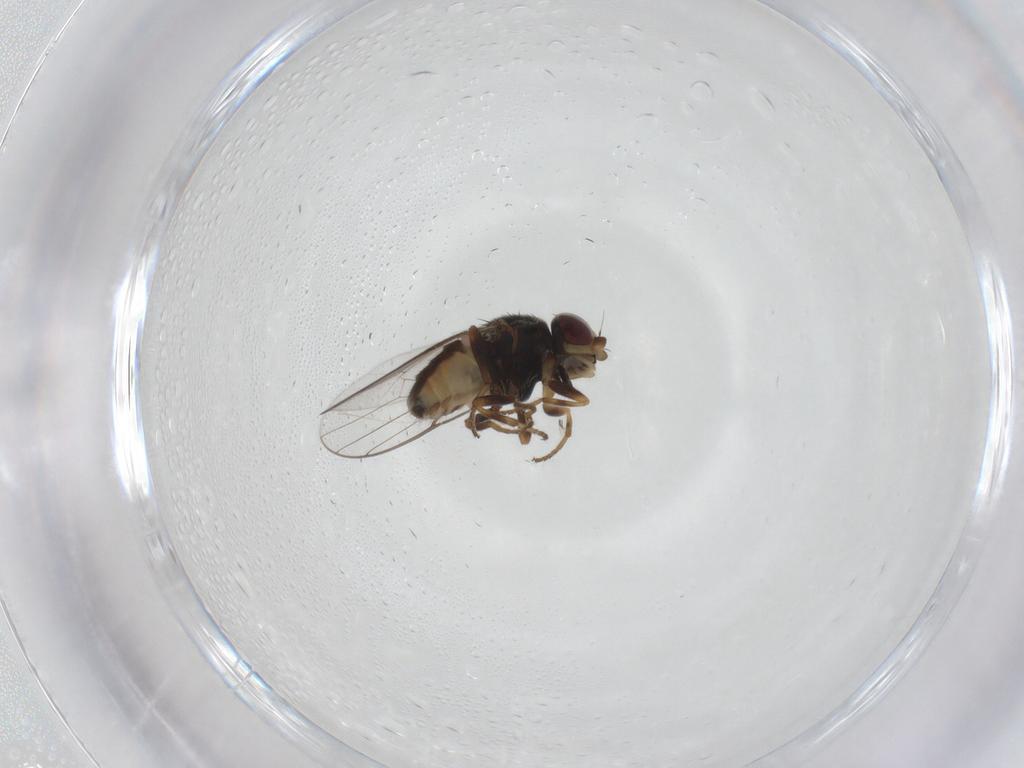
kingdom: Animalia
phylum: Arthropoda
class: Insecta
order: Diptera
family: Chloropidae
